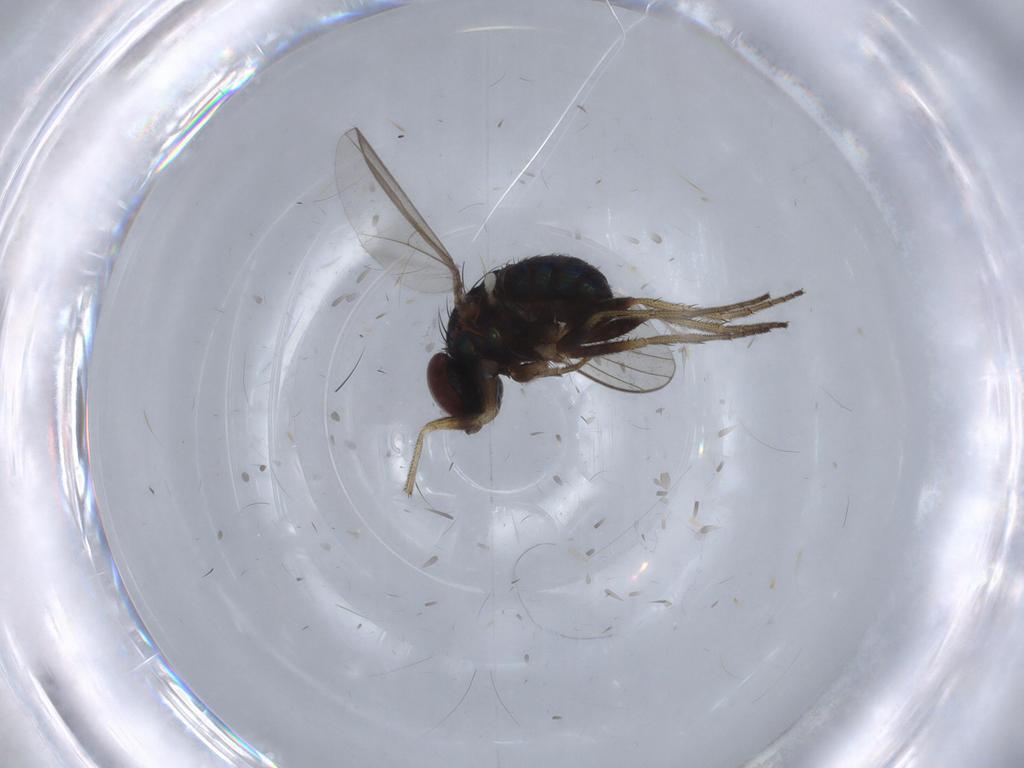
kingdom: Animalia
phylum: Arthropoda
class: Insecta
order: Diptera
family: Dolichopodidae
